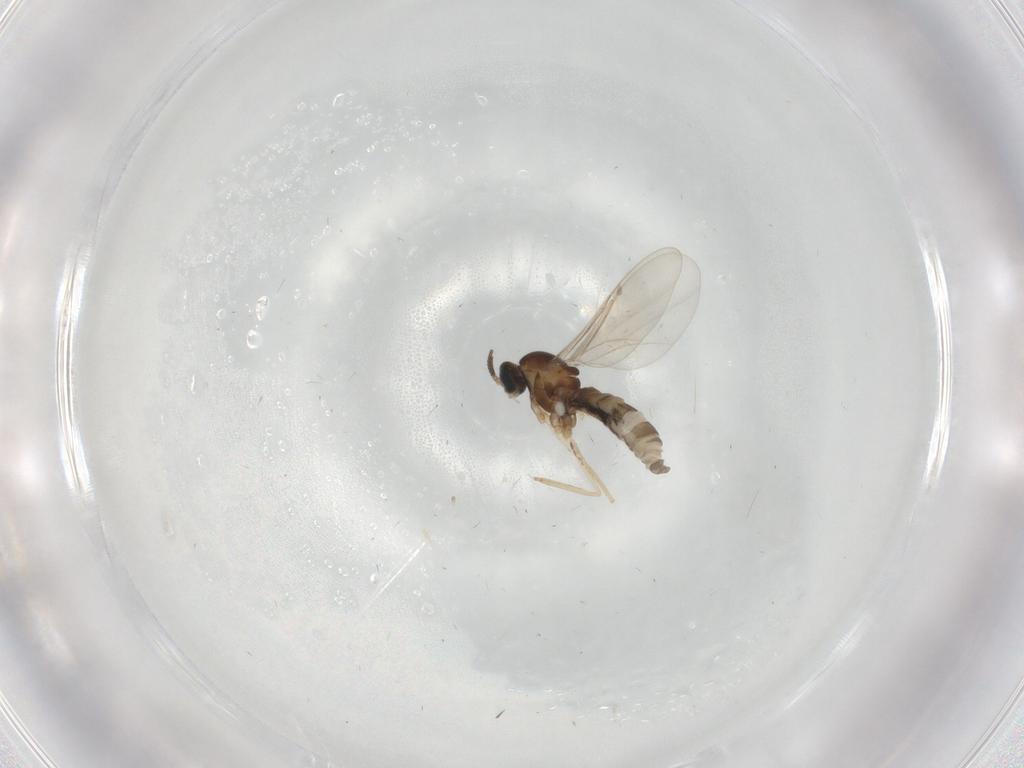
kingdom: Animalia
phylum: Arthropoda
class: Insecta
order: Diptera
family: Cecidomyiidae
